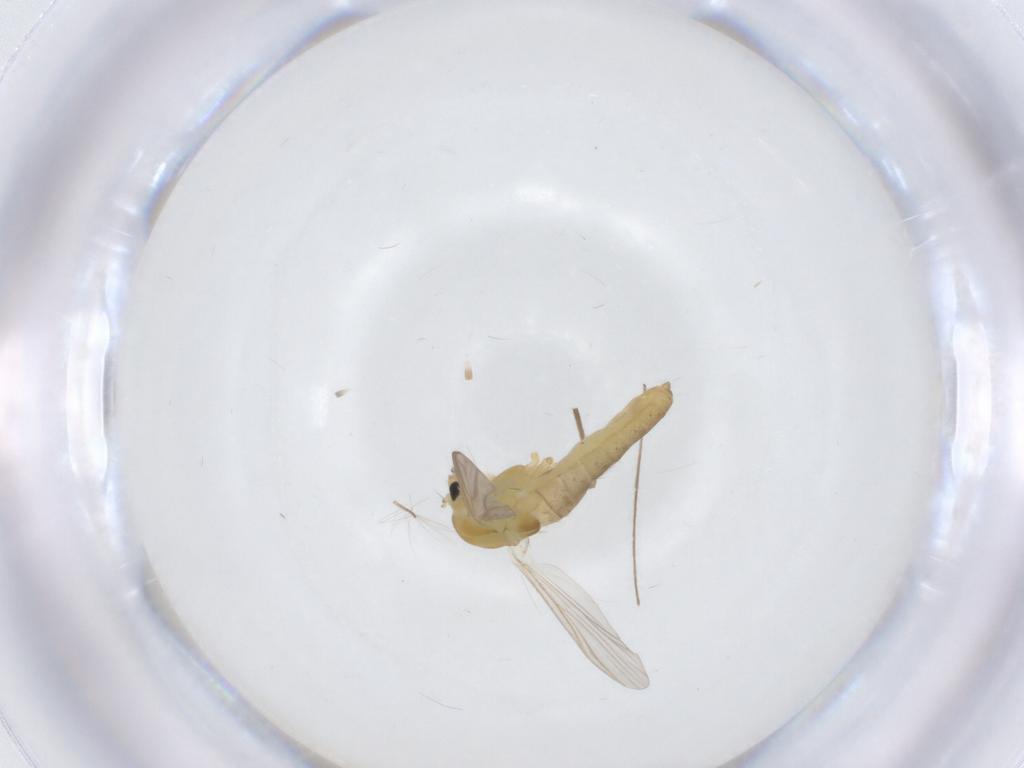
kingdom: Animalia
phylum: Arthropoda
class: Insecta
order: Diptera
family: Chironomidae
